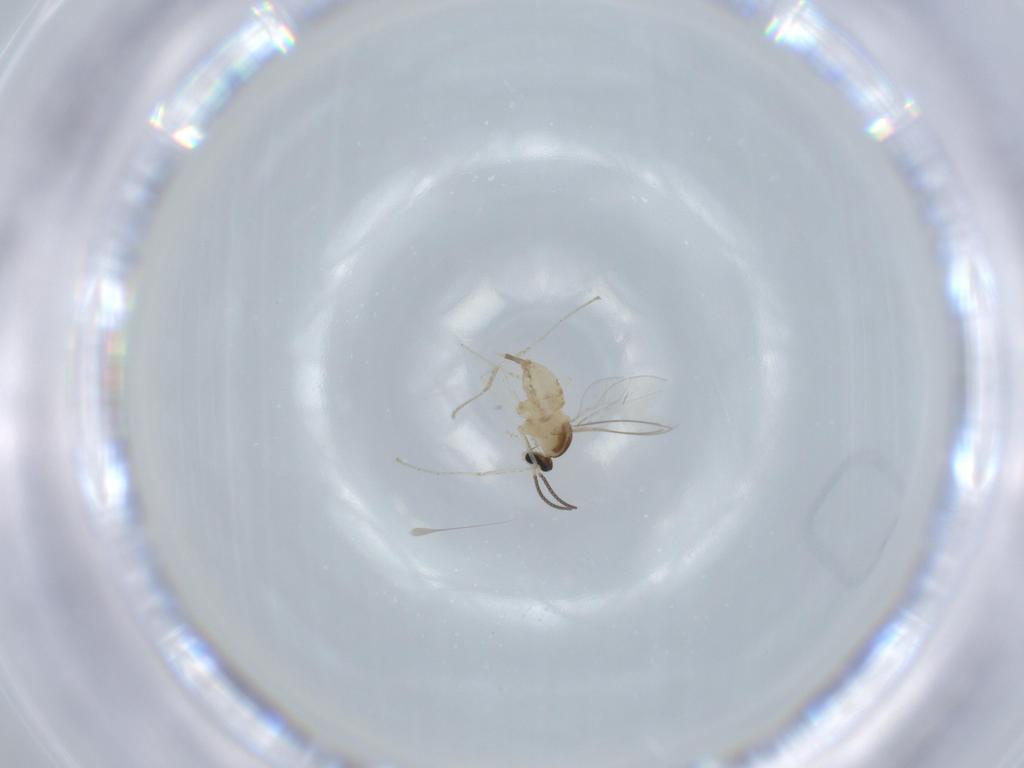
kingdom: Animalia
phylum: Arthropoda
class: Insecta
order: Diptera
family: Cecidomyiidae
